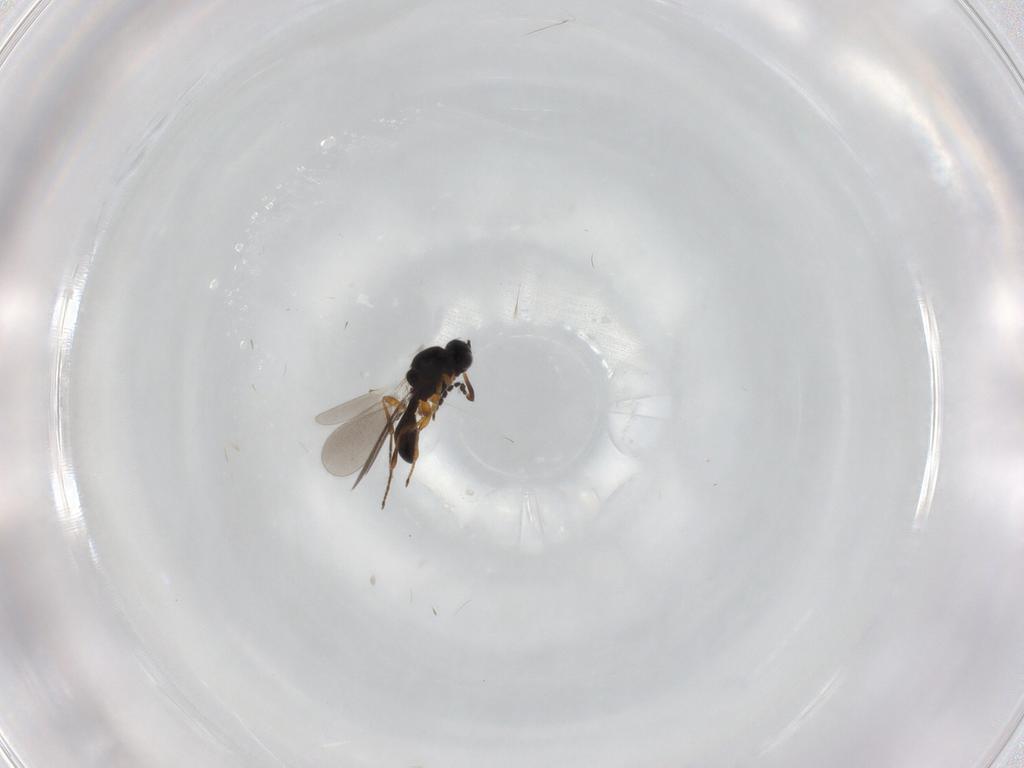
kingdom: Animalia
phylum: Arthropoda
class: Insecta
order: Hymenoptera
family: Platygastridae
